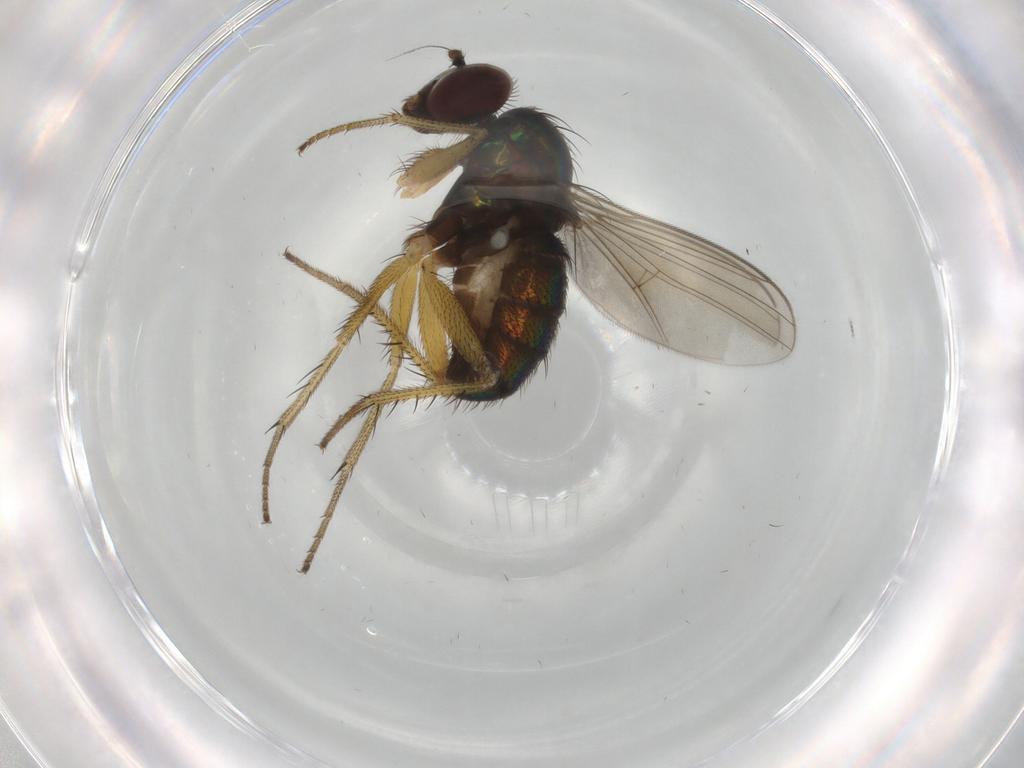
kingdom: Animalia
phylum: Arthropoda
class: Insecta
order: Diptera
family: Dolichopodidae
